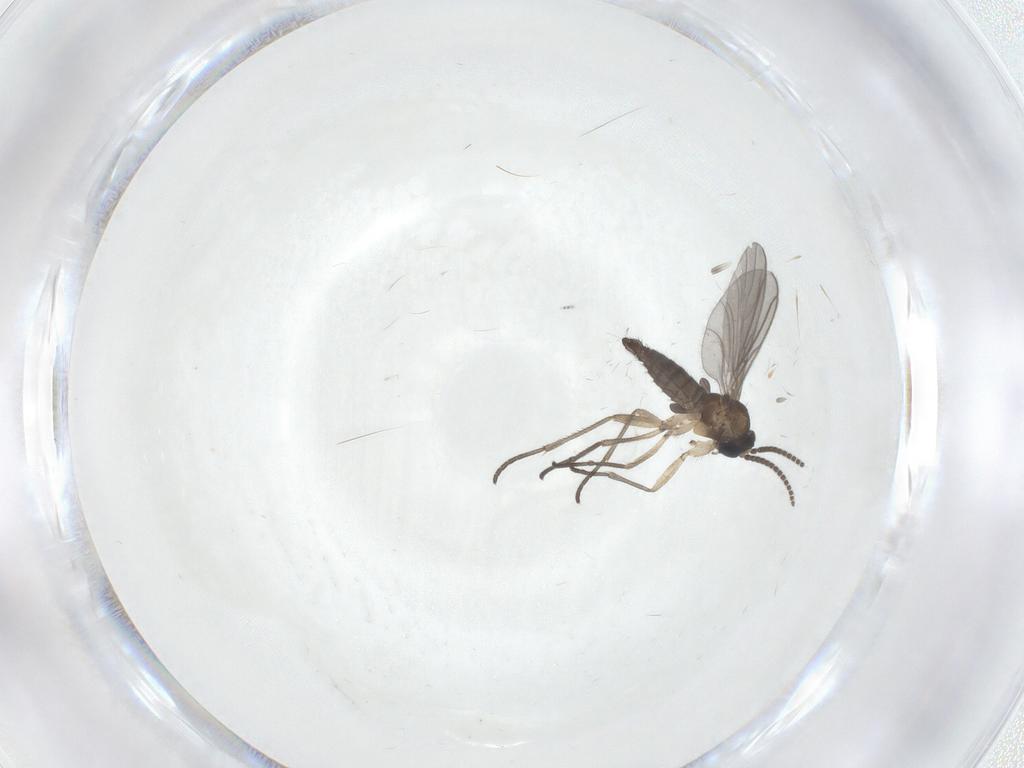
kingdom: Animalia
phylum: Arthropoda
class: Insecta
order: Diptera
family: Sciaridae
